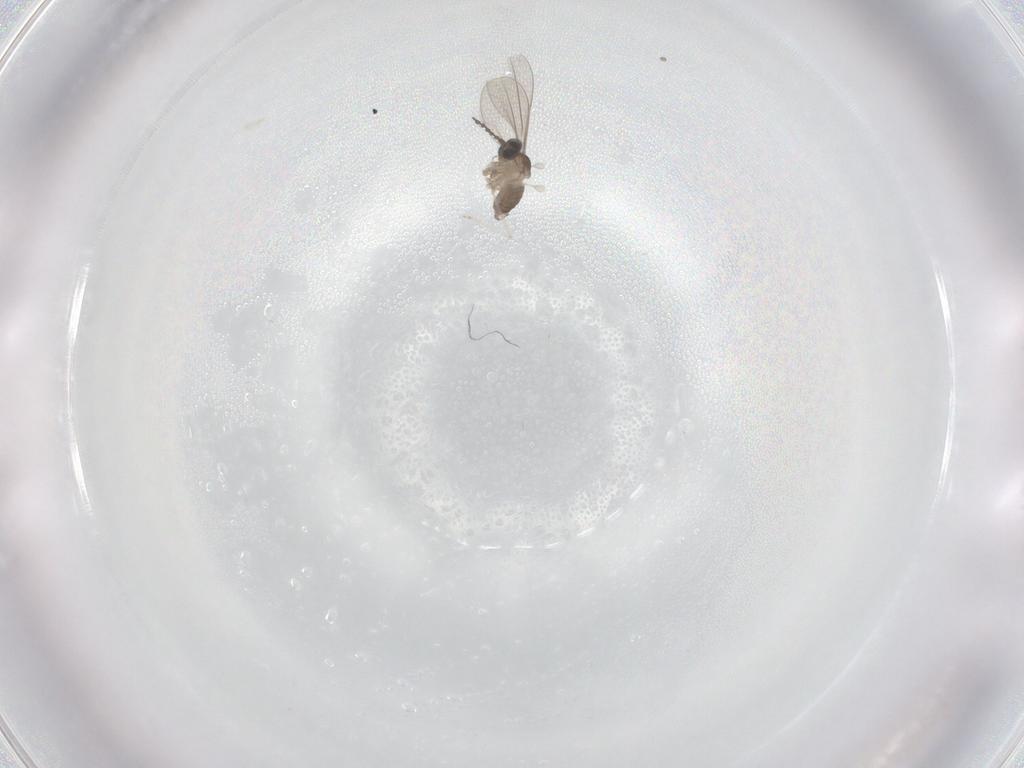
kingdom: Animalia
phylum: Arthropoda
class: Insecta
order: Diptera
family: Cecidomyiidae
